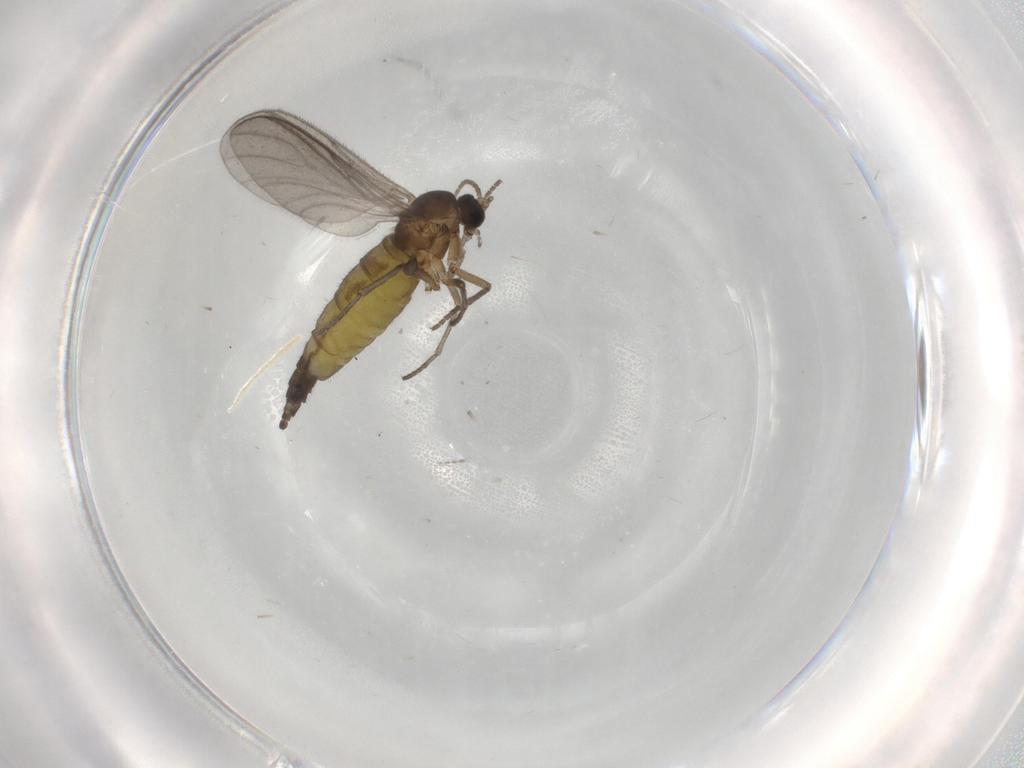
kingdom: Animalia
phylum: Arthropoda
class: Insecta
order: Diptera
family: Sciaridae
